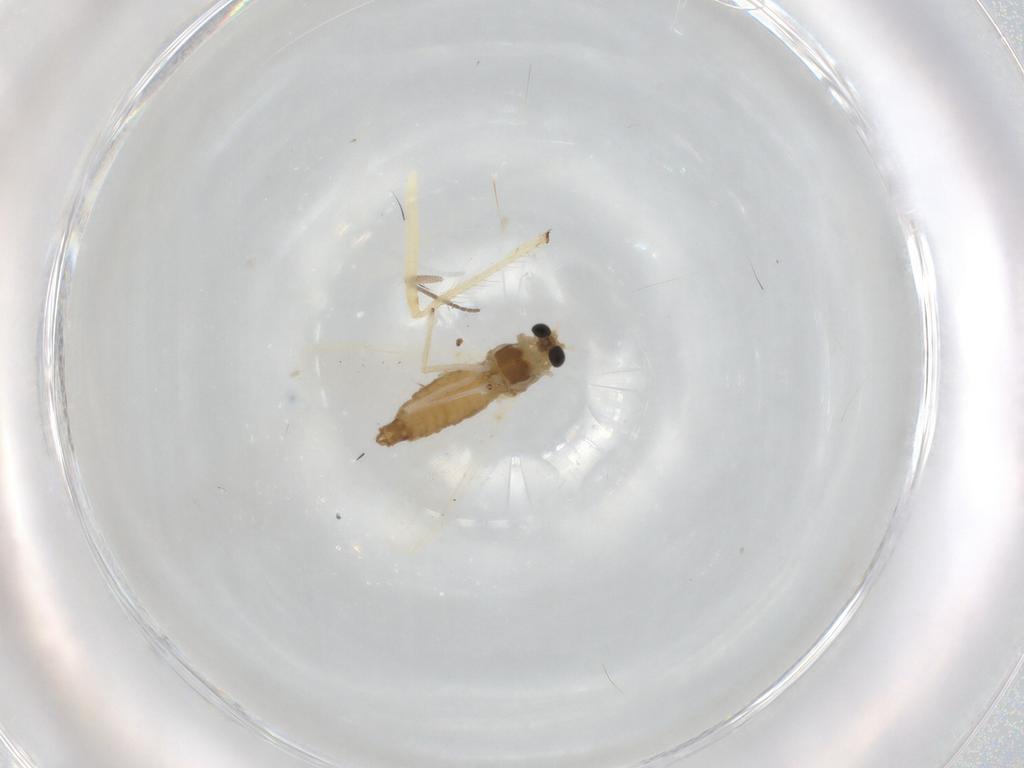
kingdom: Animalia
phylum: Arthropoda
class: Insecta
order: Diptera
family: Chironomidae
